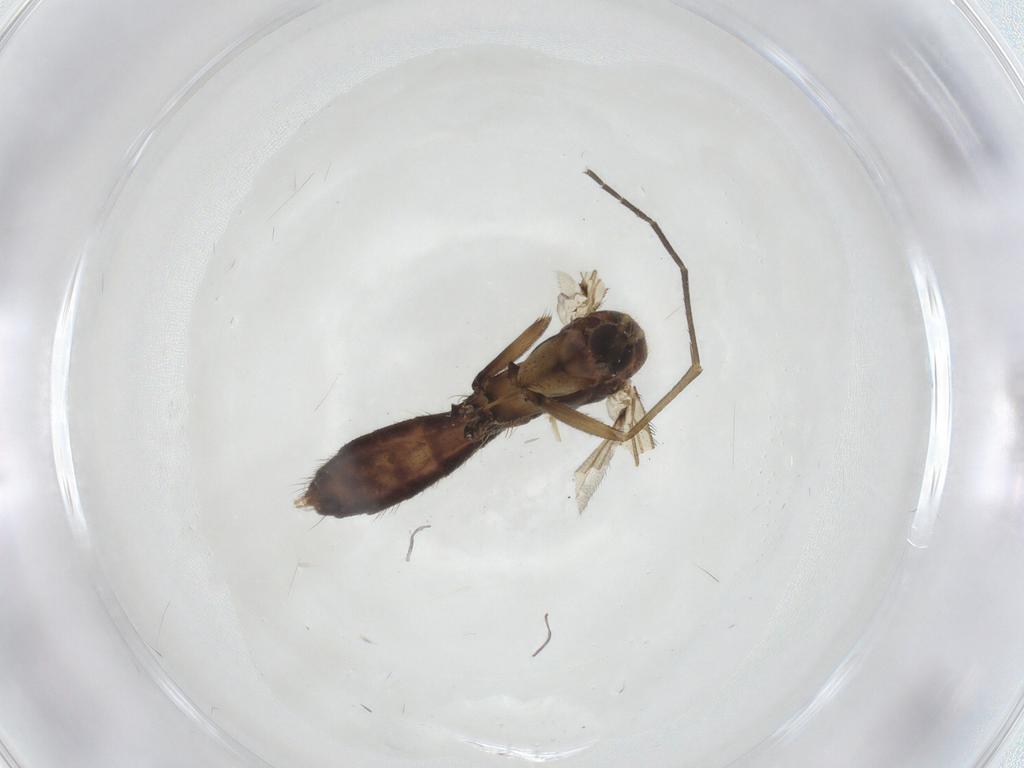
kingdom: Animalia
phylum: Arthropoda
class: Insecta
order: Diptera
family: Mycetophilidae
